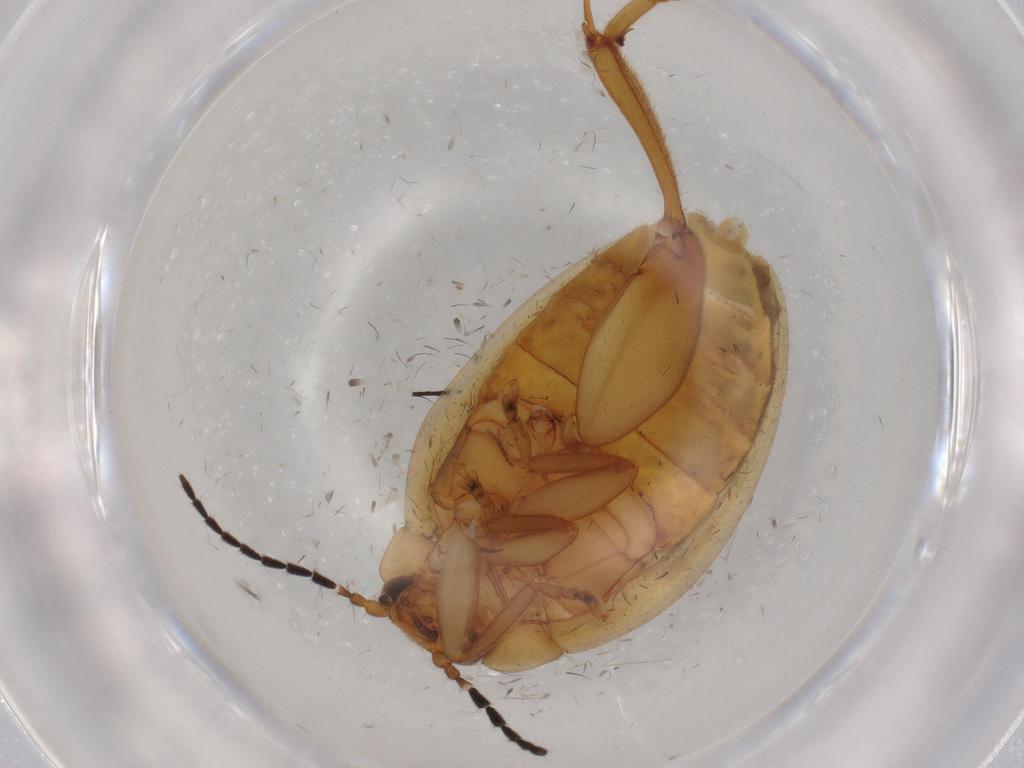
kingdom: Animalia
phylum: Arthropoda
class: Insecta
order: Coleoptera
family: Scirtidae
